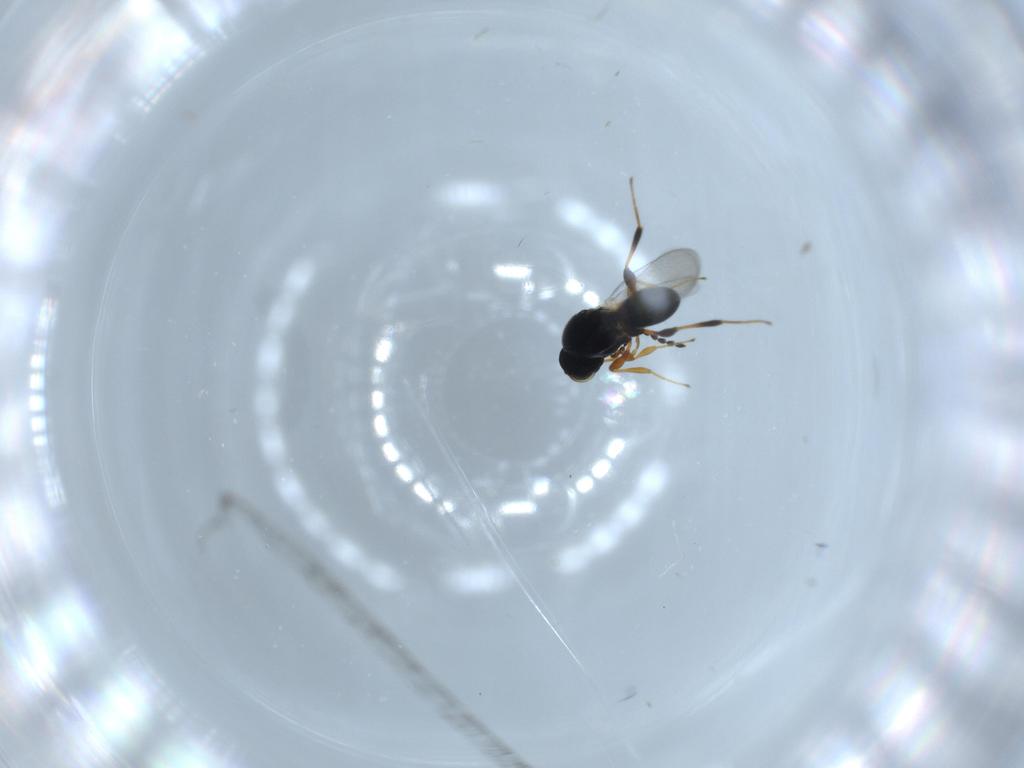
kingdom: Animalia
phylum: Arthropoda
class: Insecta
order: Hymenoptera
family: Platygastridae
